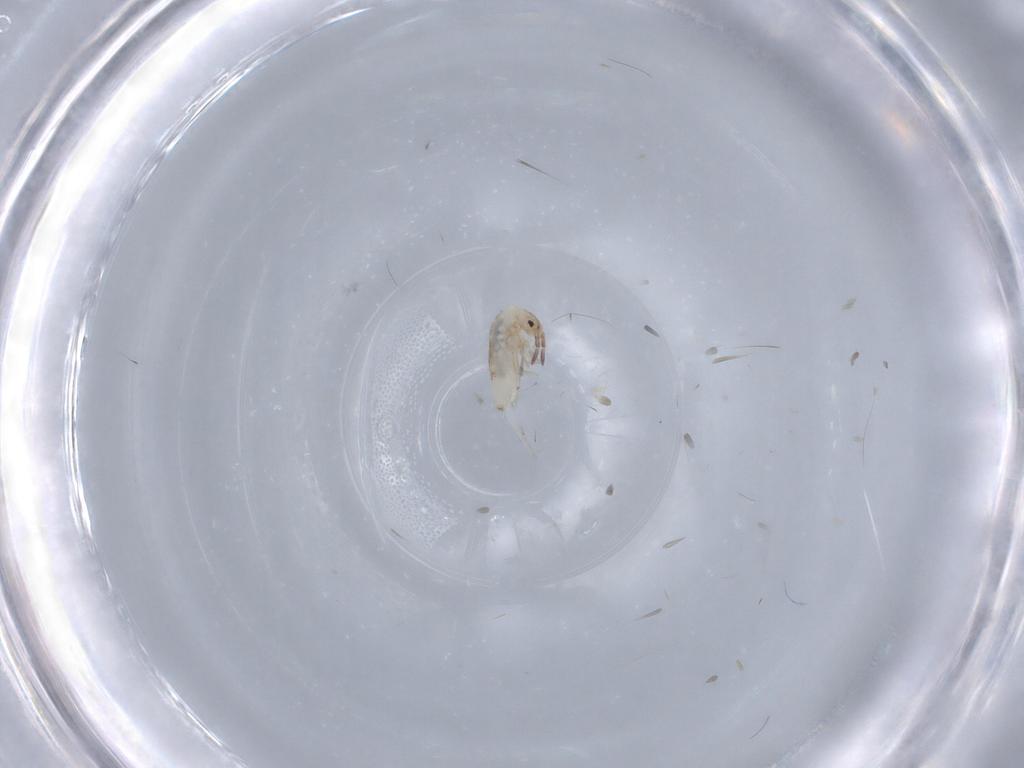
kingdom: Animalia
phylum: Arthropoda
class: Collembola
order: Entomobryomorpha
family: Entomobryidae
